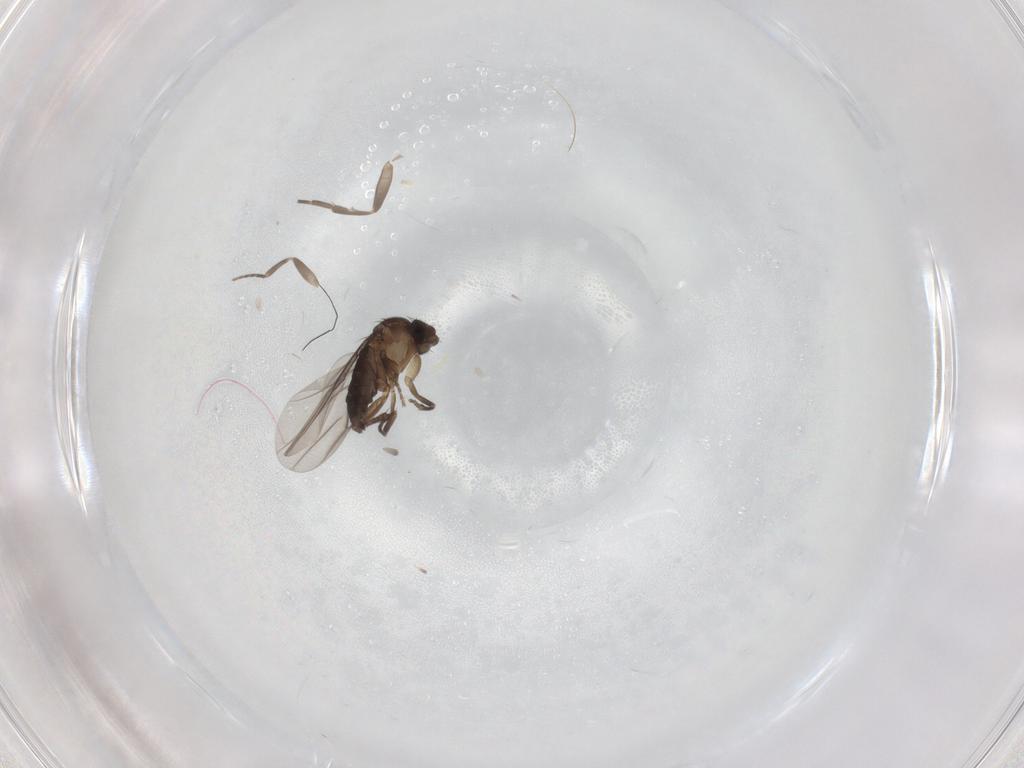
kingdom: Animalia
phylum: Arthropoda
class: Insecta
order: Diptera
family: Phoridae
